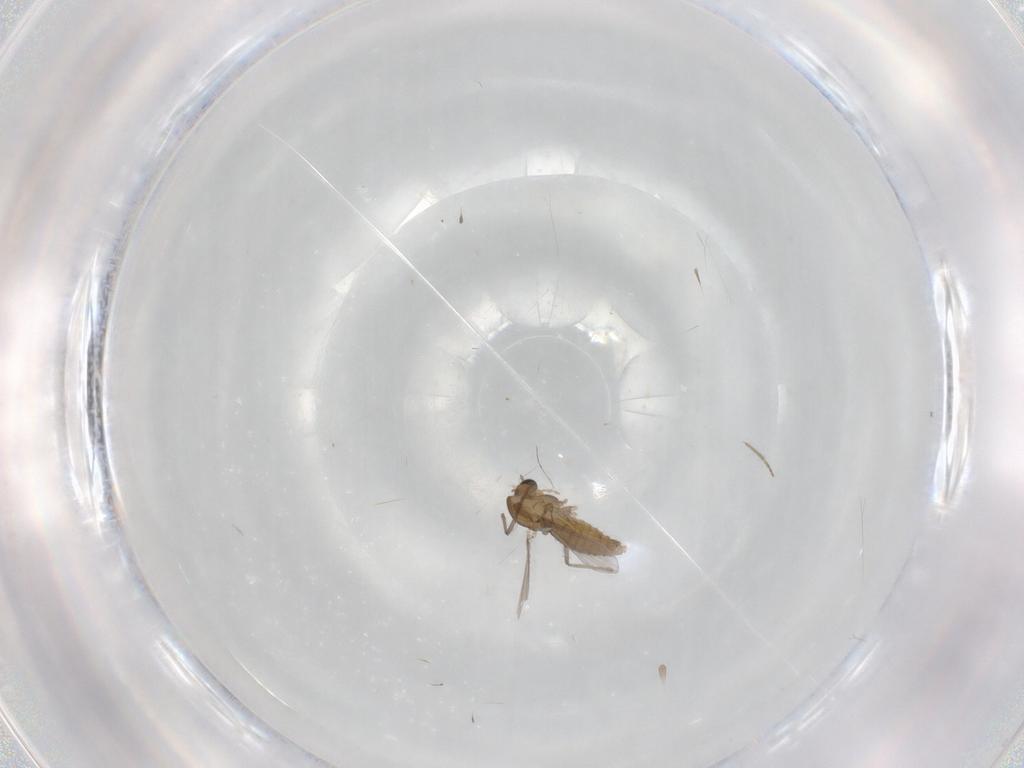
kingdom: Animalia
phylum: Arthropoda
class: Insecta
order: Diptera
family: Chironomidae
